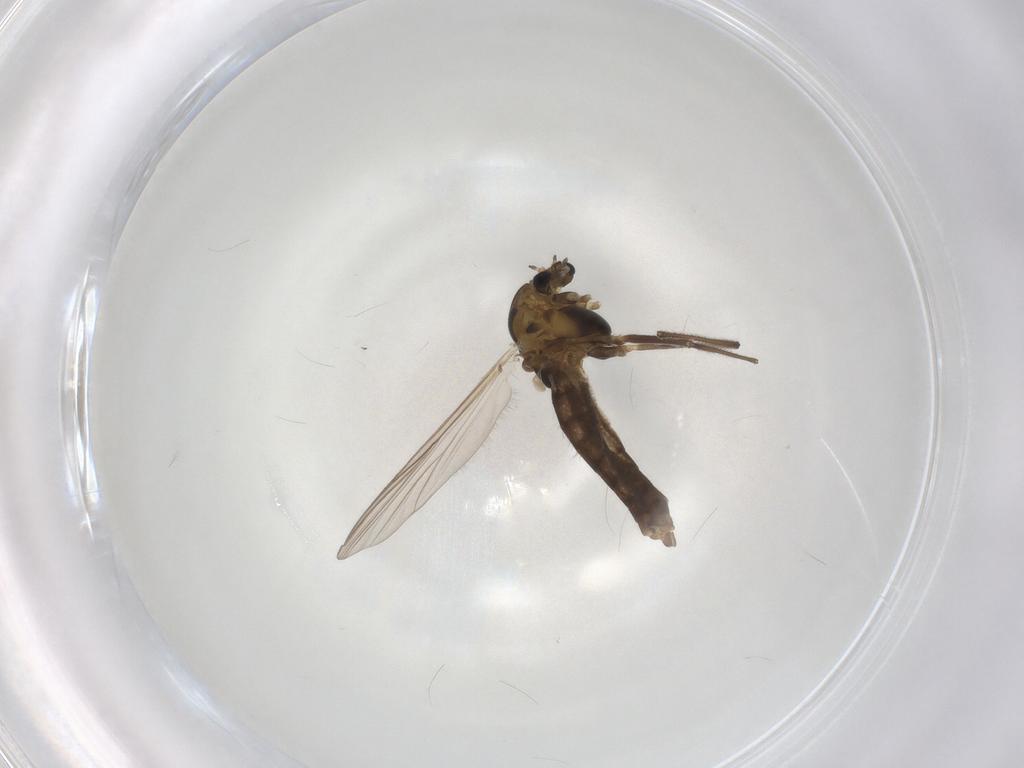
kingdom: Animalia
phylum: Arthropoda
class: Insecta
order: Diptera
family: Chironomidae
